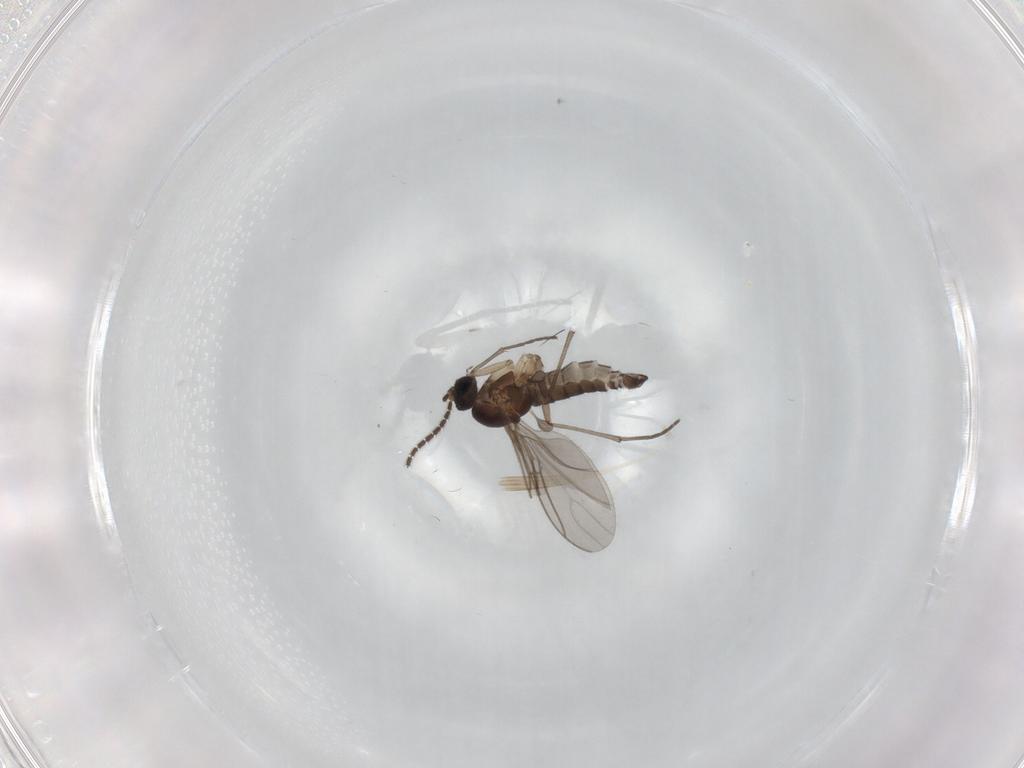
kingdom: Animalia
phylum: Arthropoda
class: Insecta
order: Diptera
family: Sciaridae
